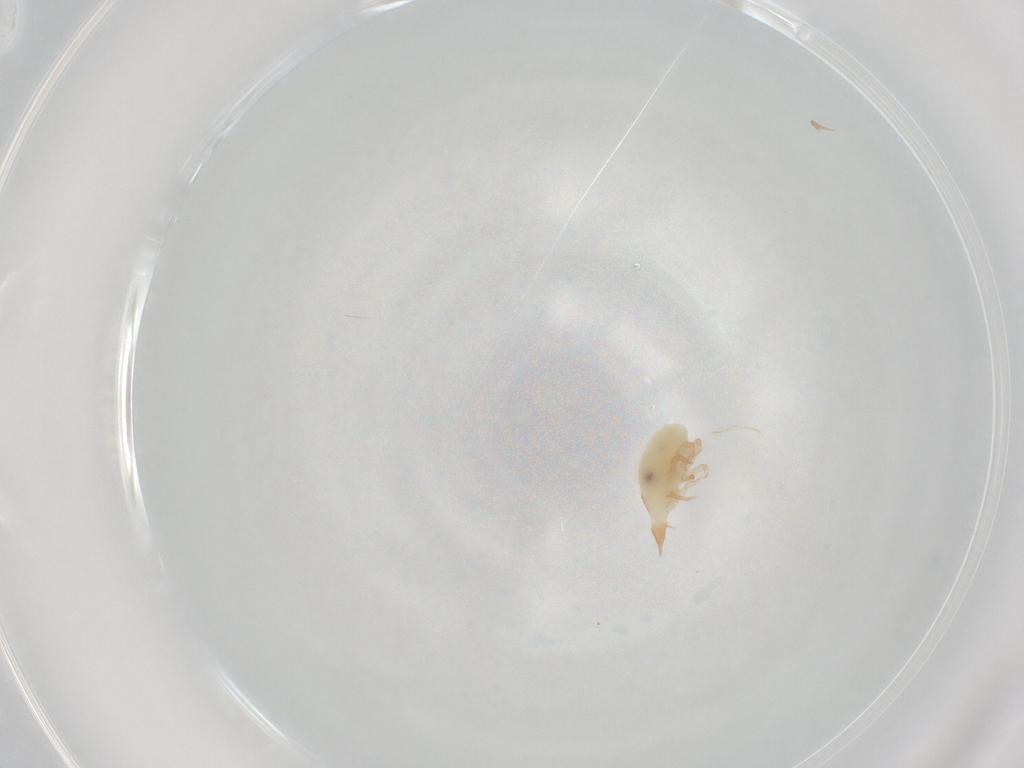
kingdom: Animalia
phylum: Arthropoda
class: Arachnida
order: Trombidiformes
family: Bdellidae
